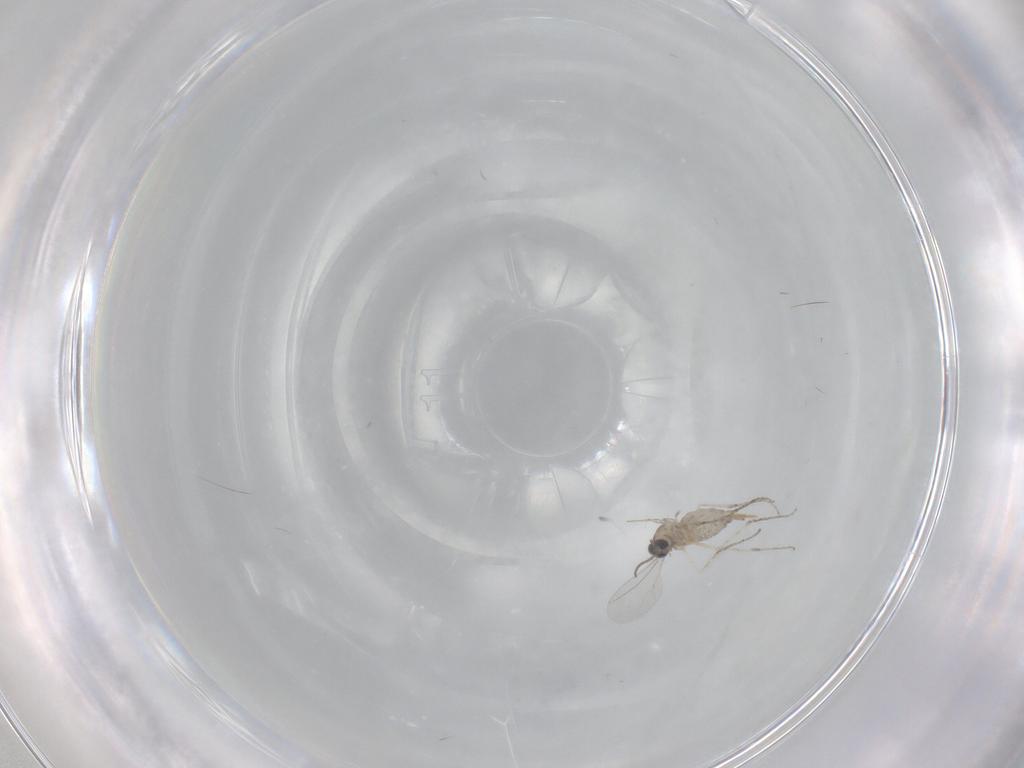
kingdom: Animalia
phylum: Arthropoda
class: Insecta
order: Diptera
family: Cecidomyiidae
